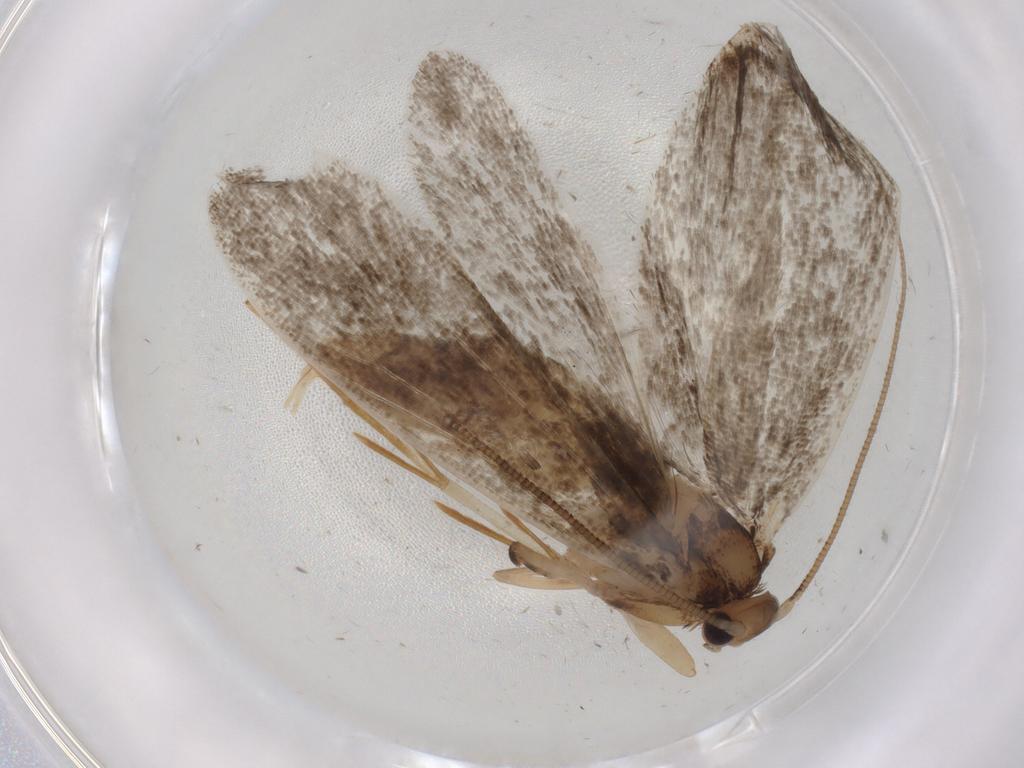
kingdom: Animalia
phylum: Arthropoda
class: Insecta
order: Lepidoptera
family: Tineidae
